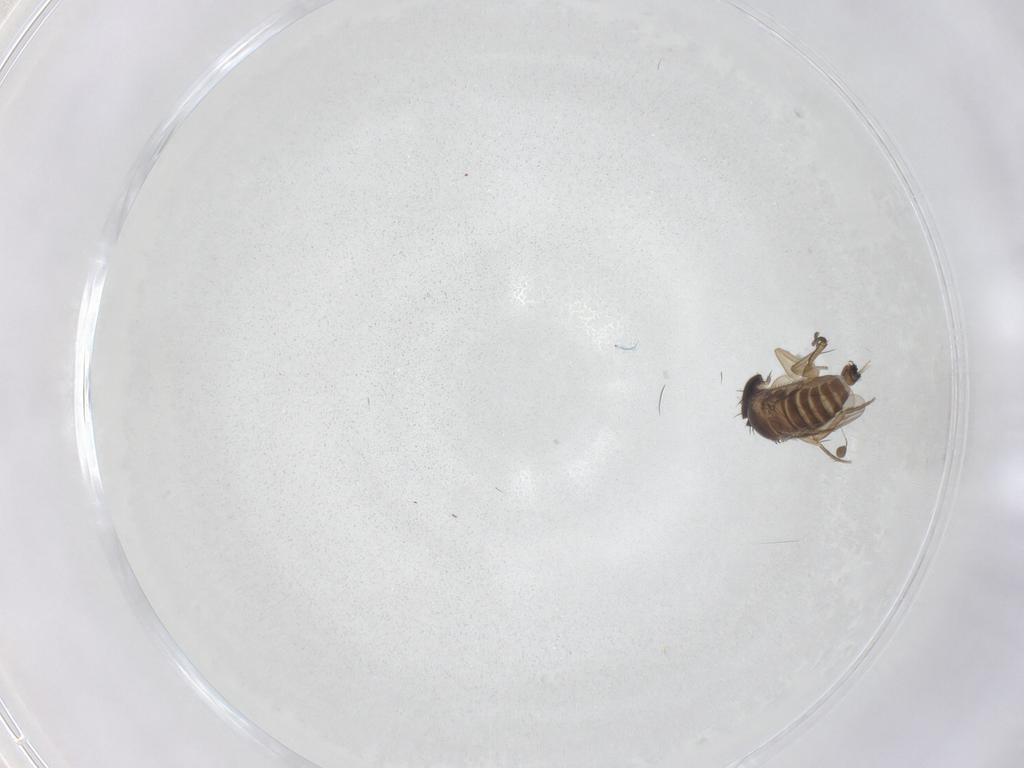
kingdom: Animalia
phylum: Arthropoda
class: Insecta
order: Diptera
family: Phoridae
